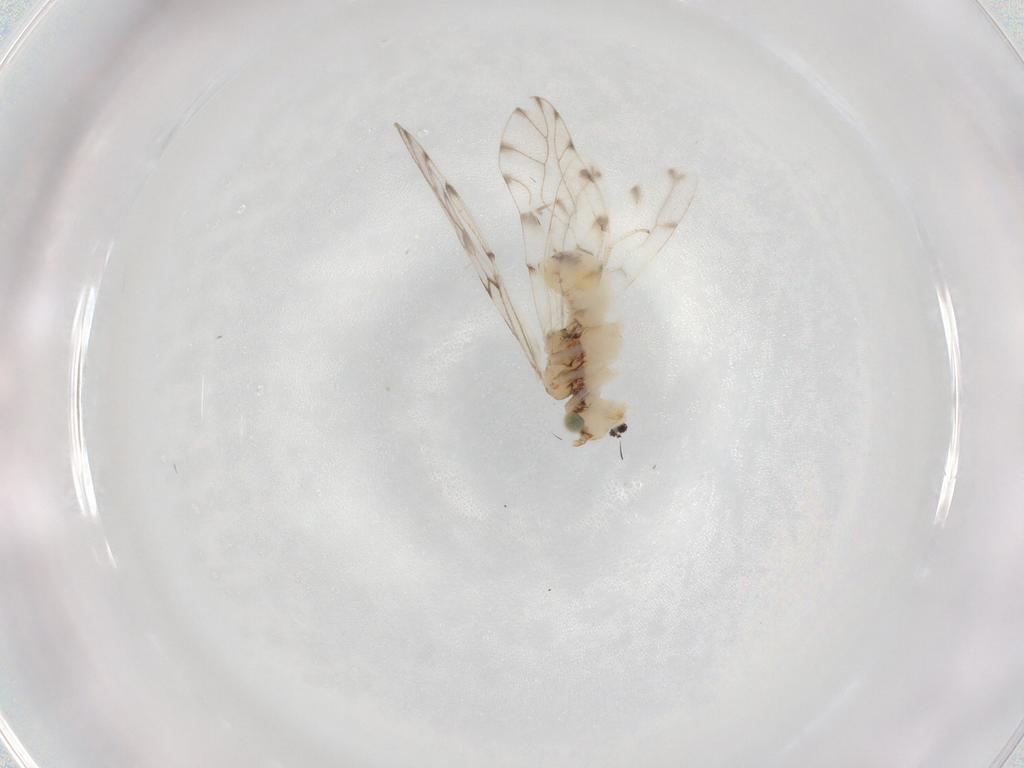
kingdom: Animalia
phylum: Arthropoda
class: Insecta
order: Psocodea
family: Ectopsocidae
